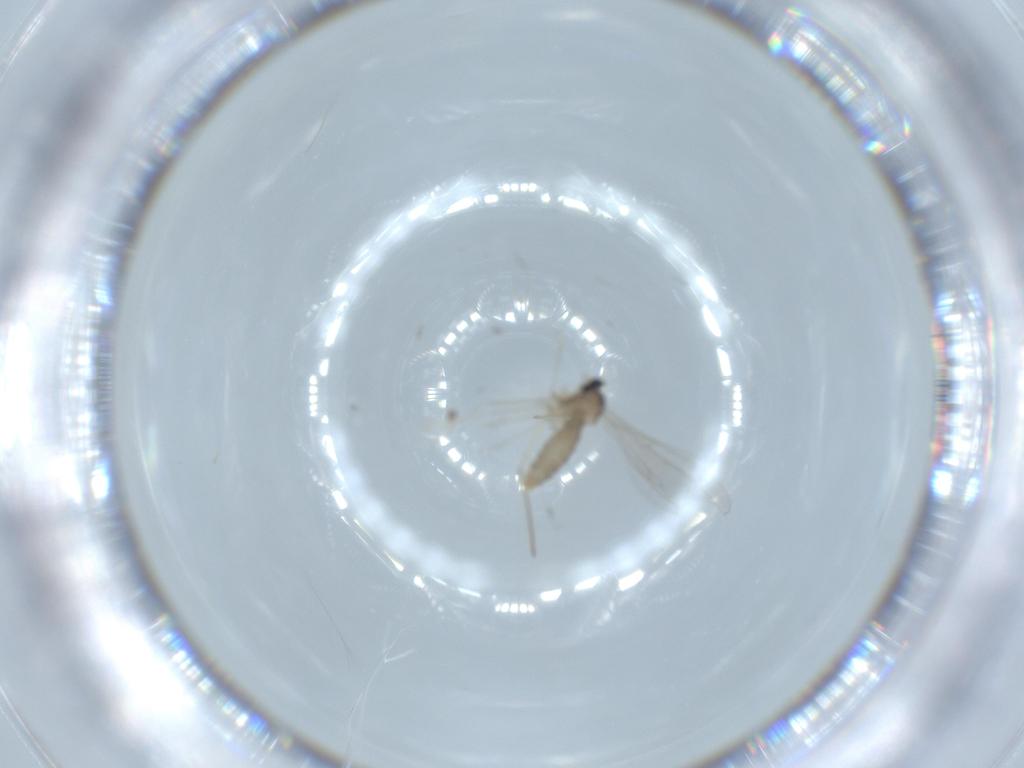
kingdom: Animalia
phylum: Arthropoda
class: Insecta
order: Diptera
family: Cecidomyiidae
